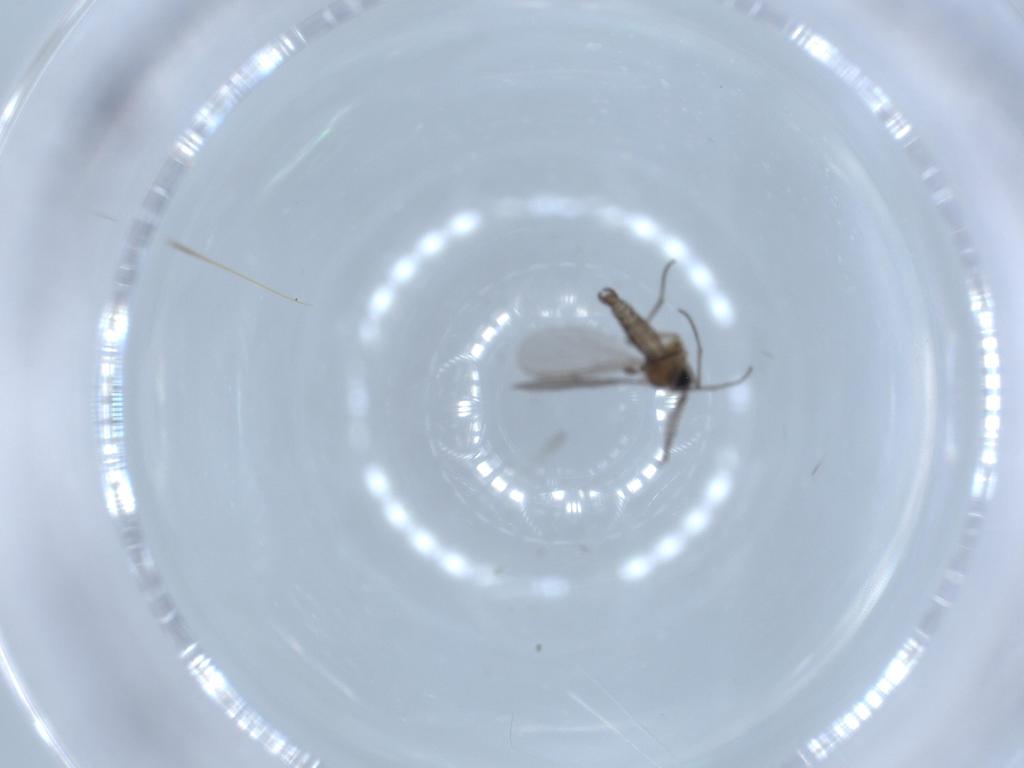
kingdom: Animalia
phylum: Arthropoda
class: Insecta
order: Diptera
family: Sciaridae
